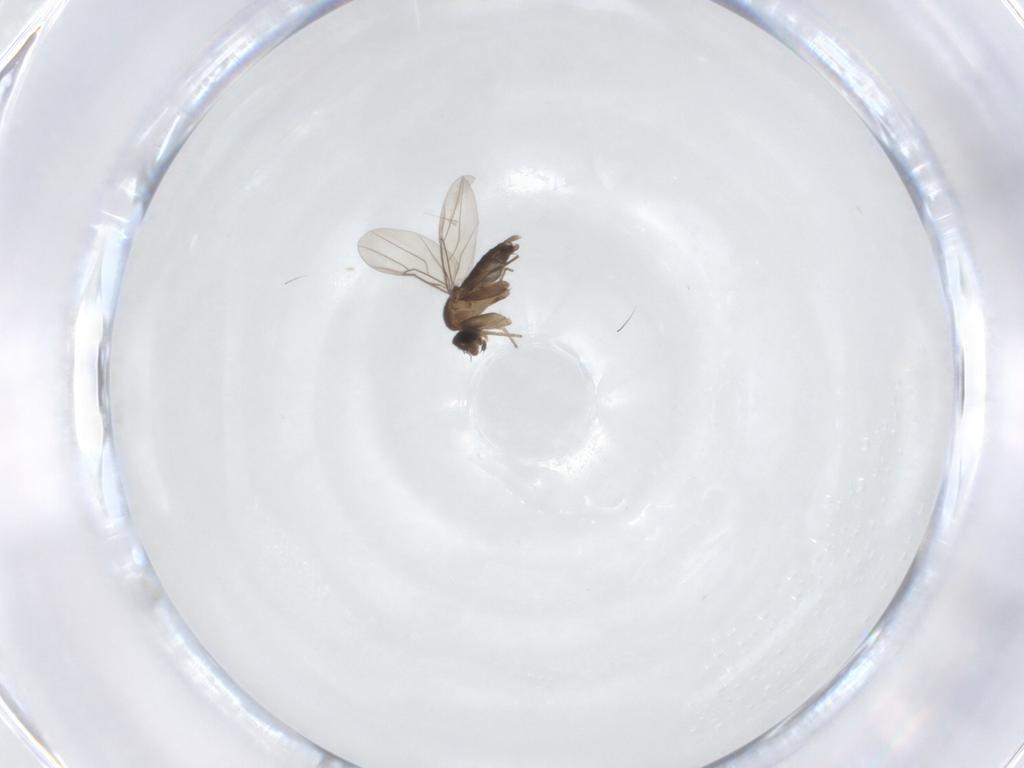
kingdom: Animalia
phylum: Arthropoda
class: Insecta
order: Diptera
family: Phoridae
